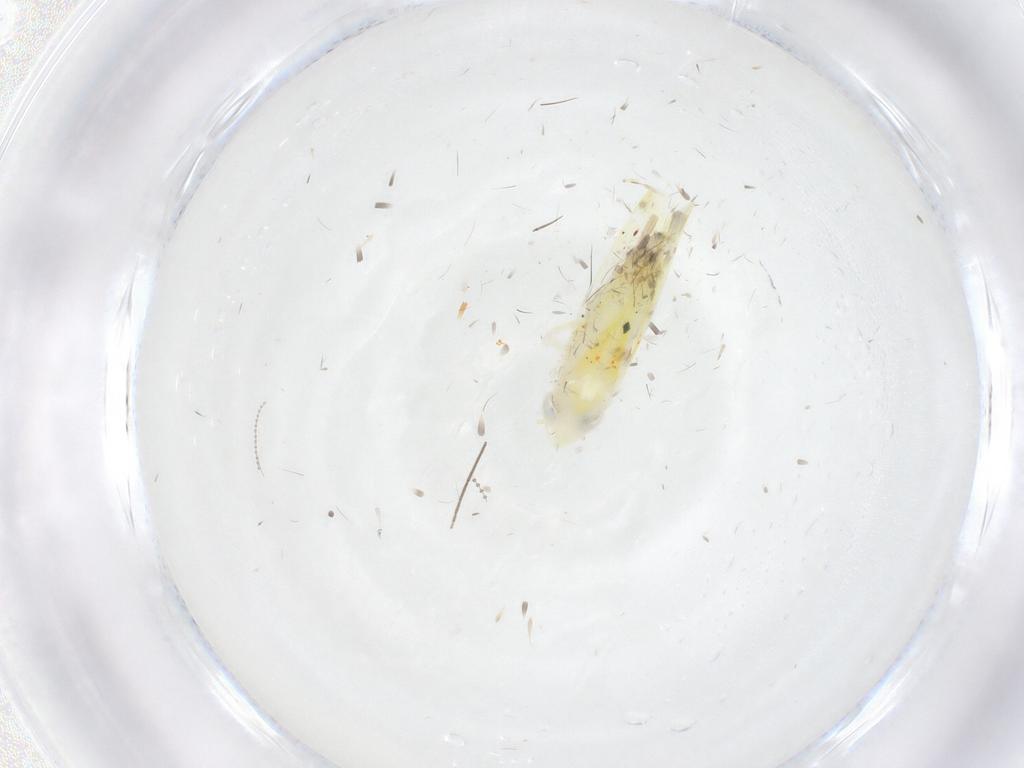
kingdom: Animalia
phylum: Arthropoda
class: Insecta
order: Hemiptera
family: Cicadellidae
